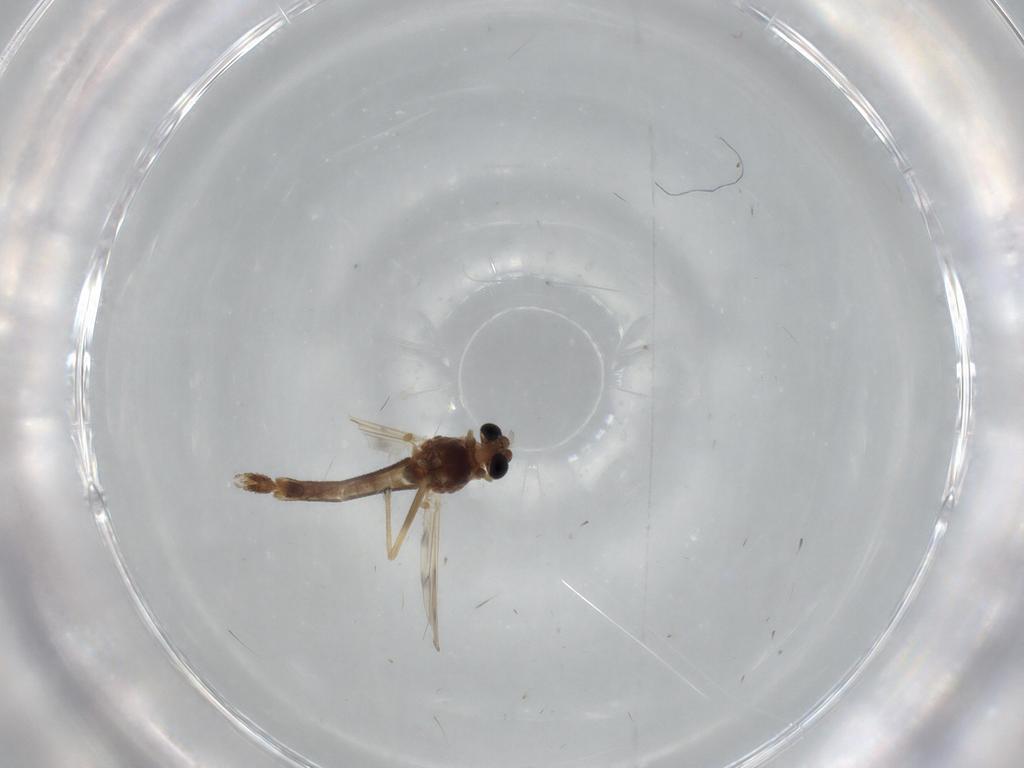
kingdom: Animalia
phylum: Arthropoda
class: Insecta
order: Diptera
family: Chironomidae
